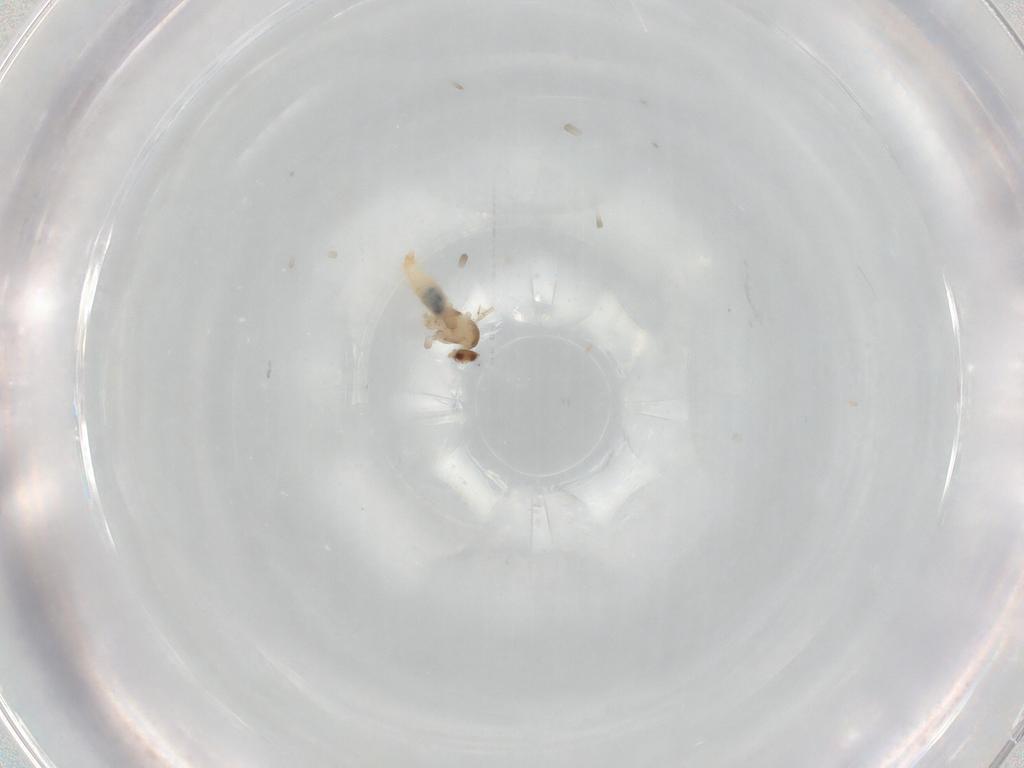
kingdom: Animalia
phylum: Arthropoda
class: Insecta
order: Diptera
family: Cecidomyiidae
